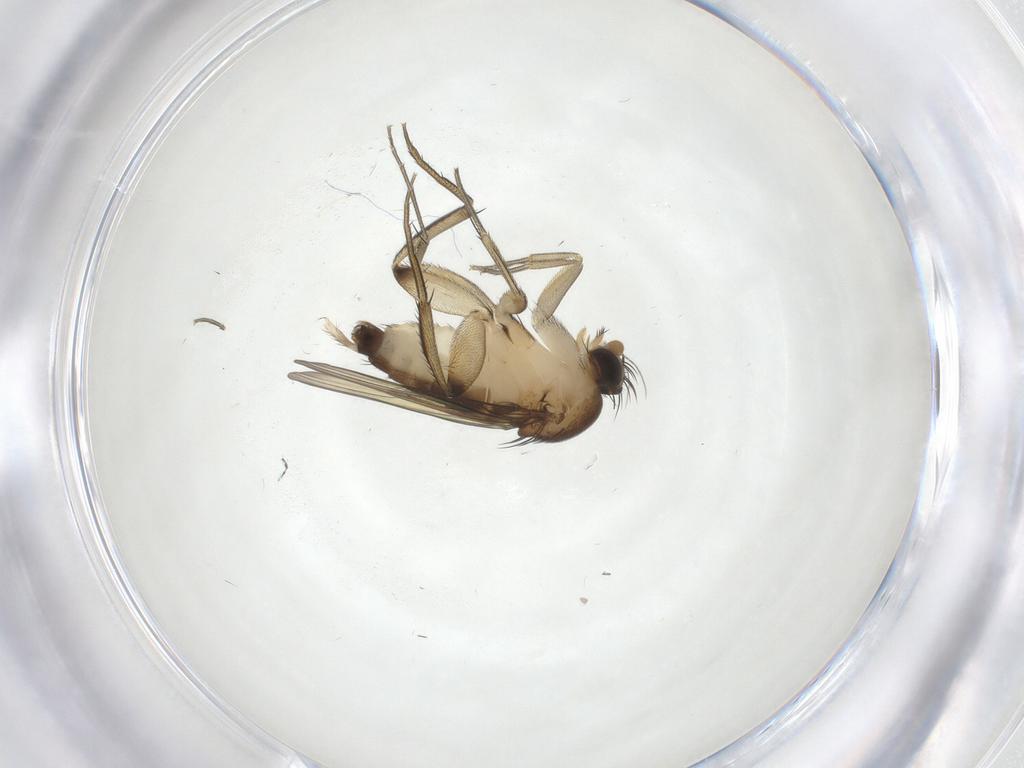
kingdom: Animalia
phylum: Arthropoda
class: Insecta
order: Diptera
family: Phoridae
